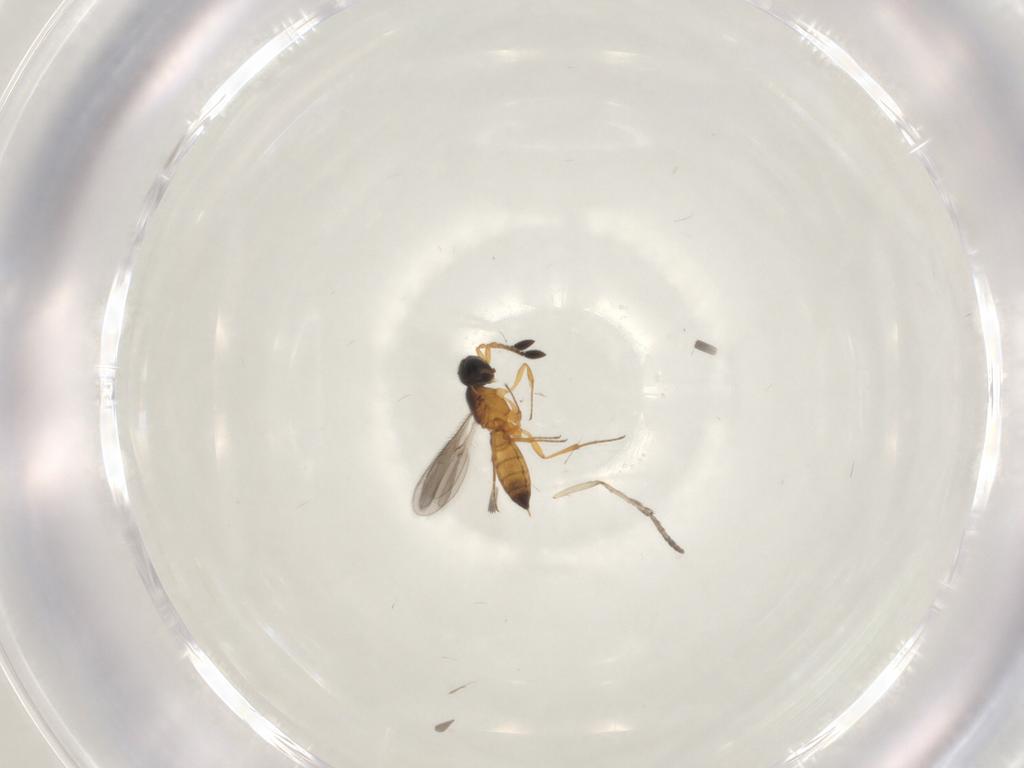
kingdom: Animalia
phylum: Arthropoda
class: Insecta
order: Hymenoptera
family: Scelionidae
